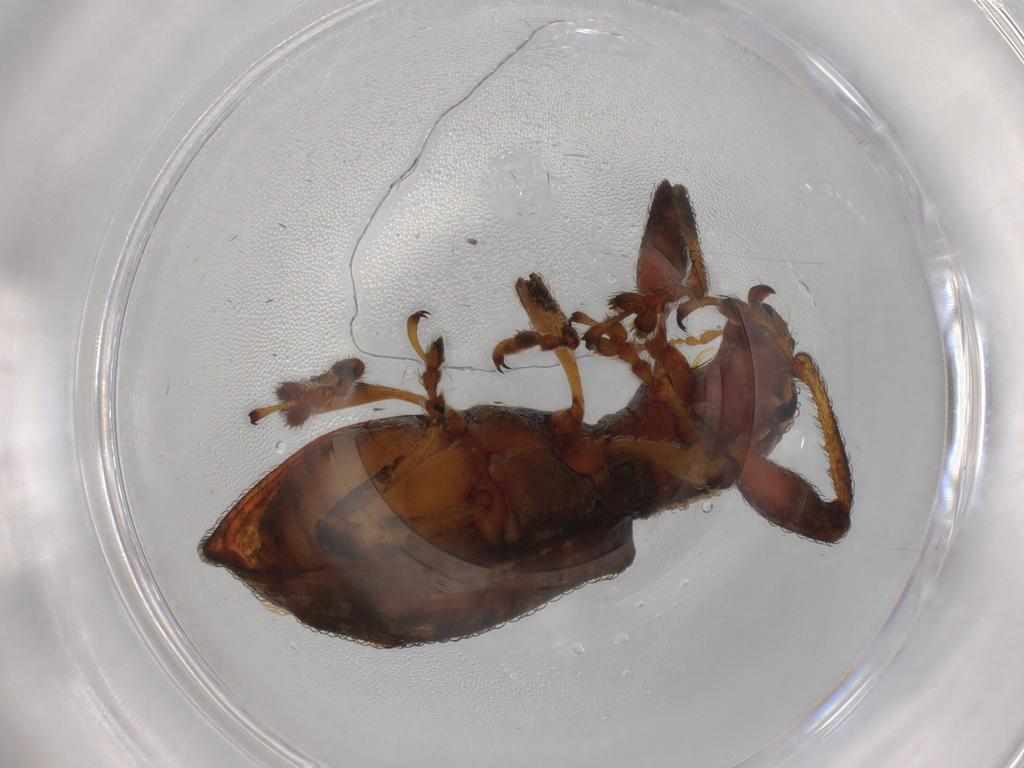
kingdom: Animalia
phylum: Arthropoda
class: Insecta
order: Coleoptera
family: Curculionidae
